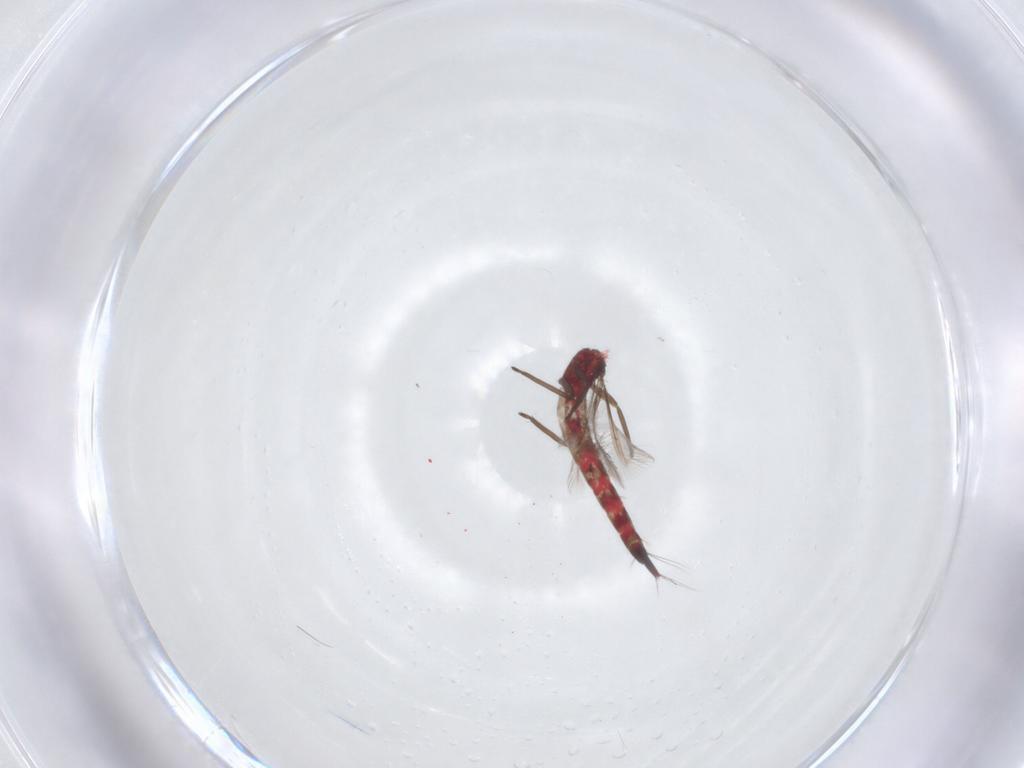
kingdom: Animalia
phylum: Arthropoda
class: Insecta
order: Thysanoptera
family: Phlaeothripidae
